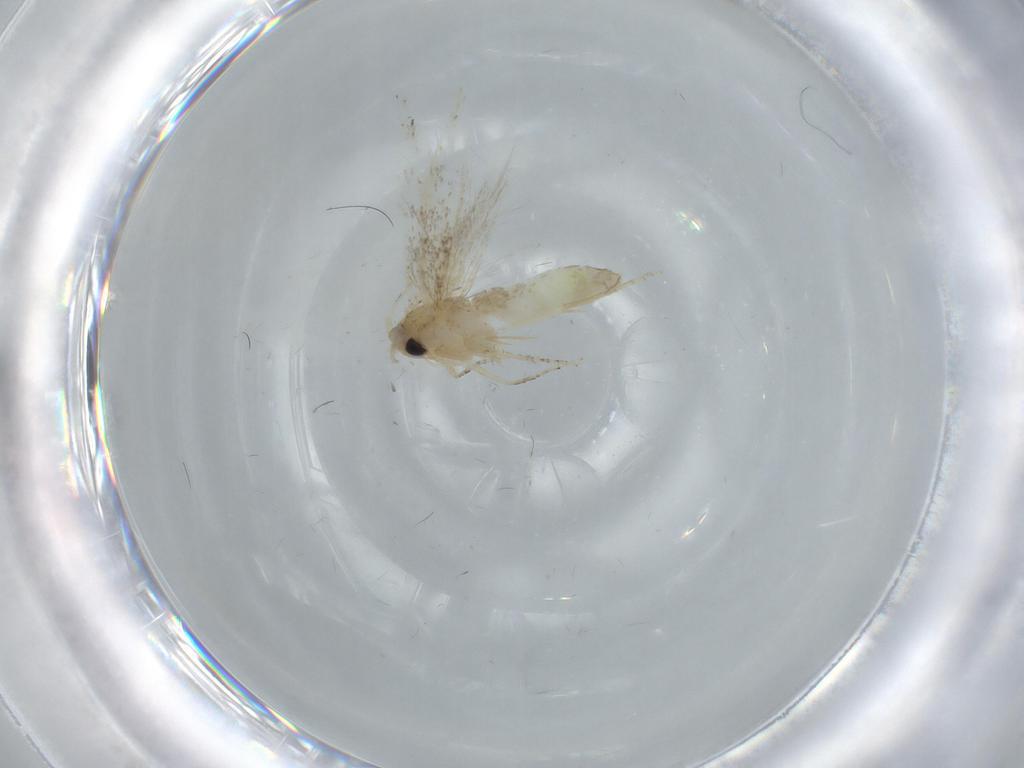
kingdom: Animalia
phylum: Arthropoda
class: Insecta
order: Lepidoptera
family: Bucculatricidae
